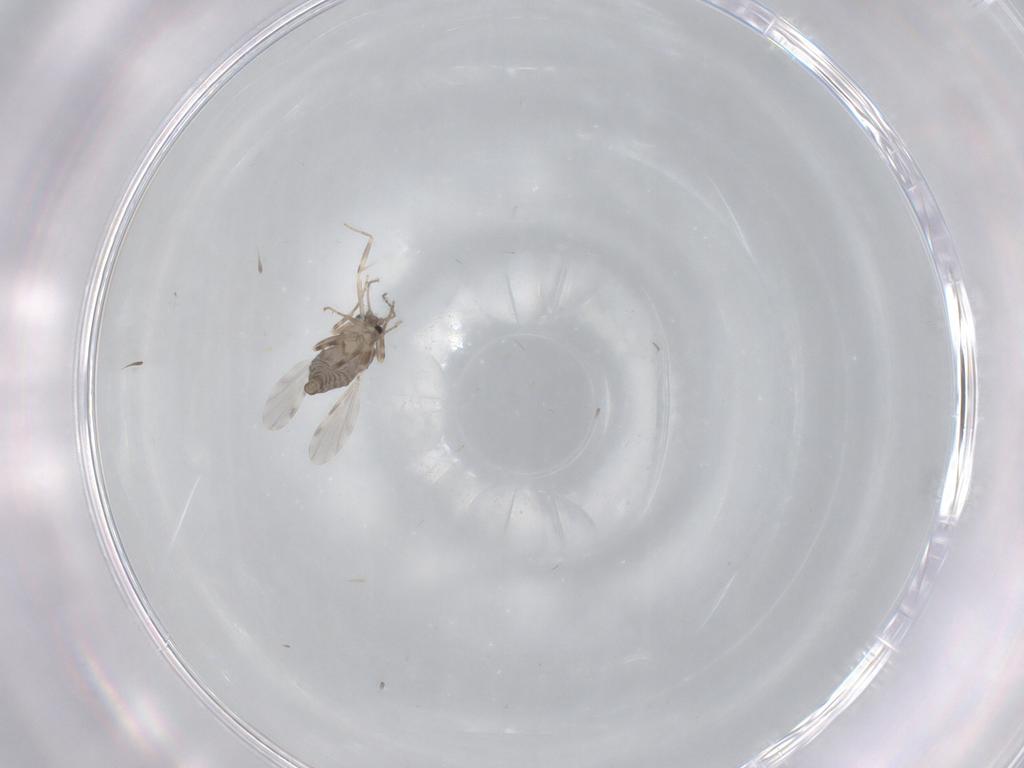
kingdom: Animalia
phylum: Arthropoda
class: Insecta
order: Diptera
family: Ceratopogonidae
